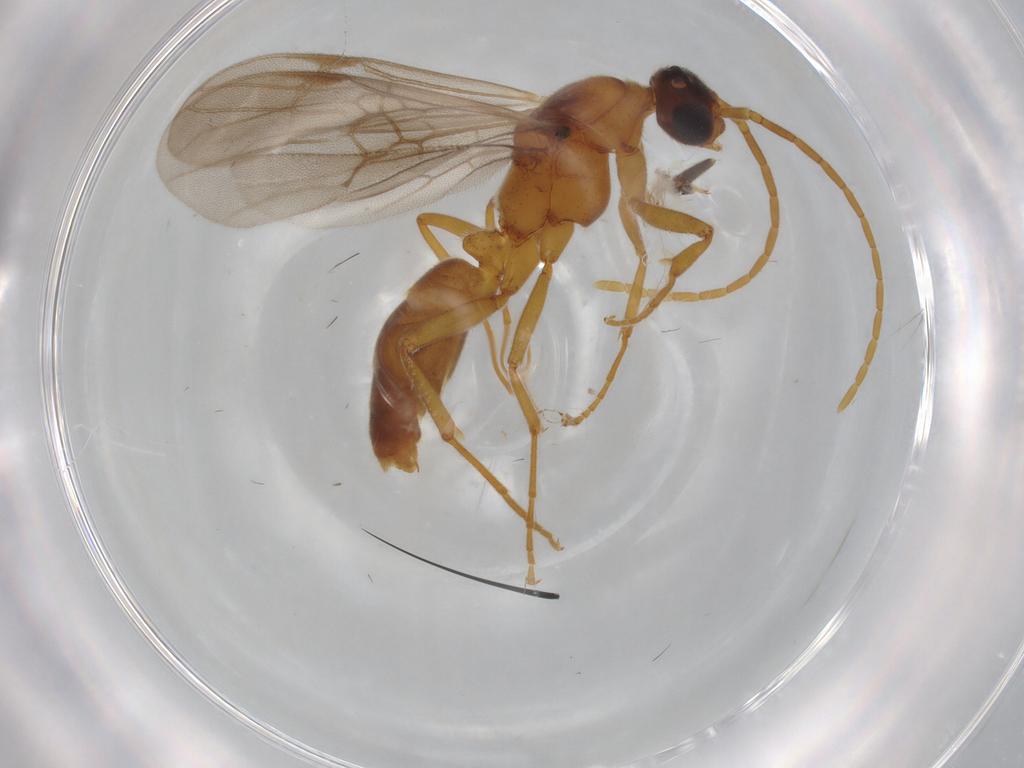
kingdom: Animalia
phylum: Arthropoda
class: Insecta
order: Hymenoptera
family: Formicidae
